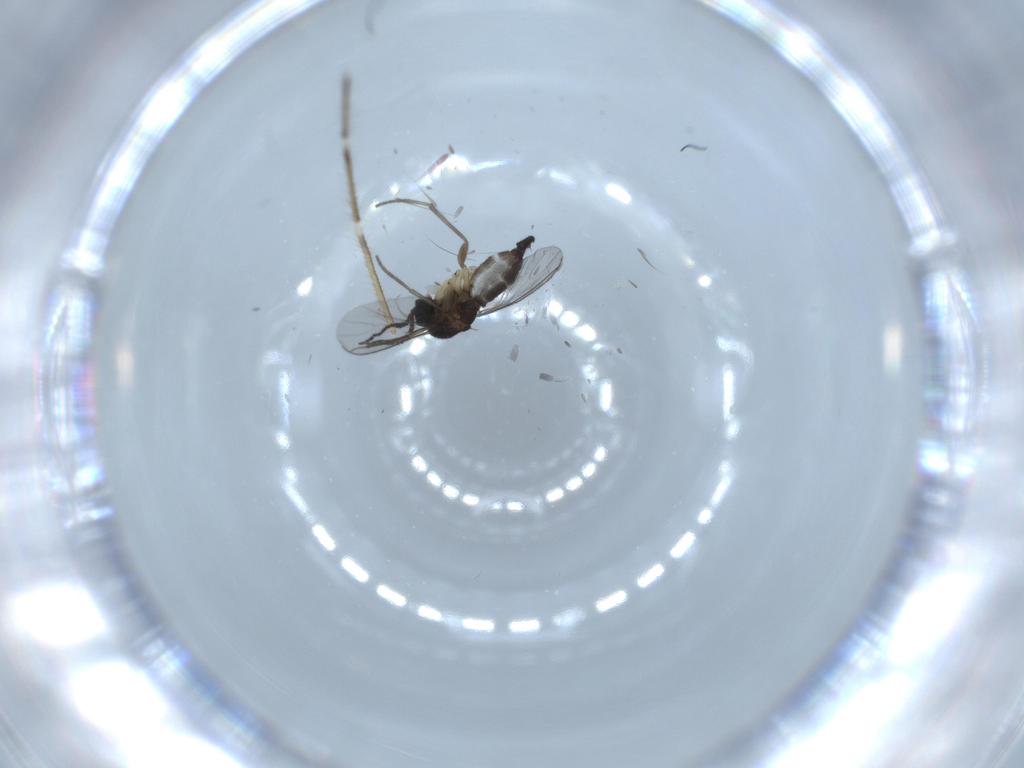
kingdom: Animalia
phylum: Arthropoda
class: Insecta
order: Diptera
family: Sciaridae
